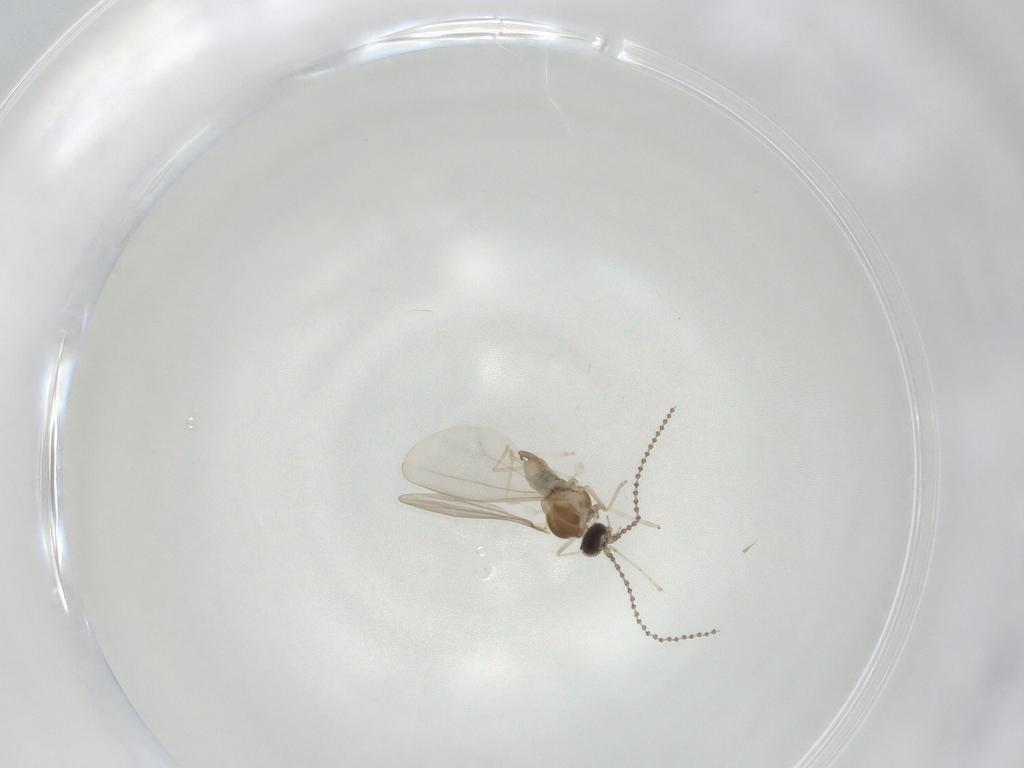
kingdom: Animalia
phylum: Arthropoda
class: Insecta
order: Diptera
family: Cecidomyiidae
